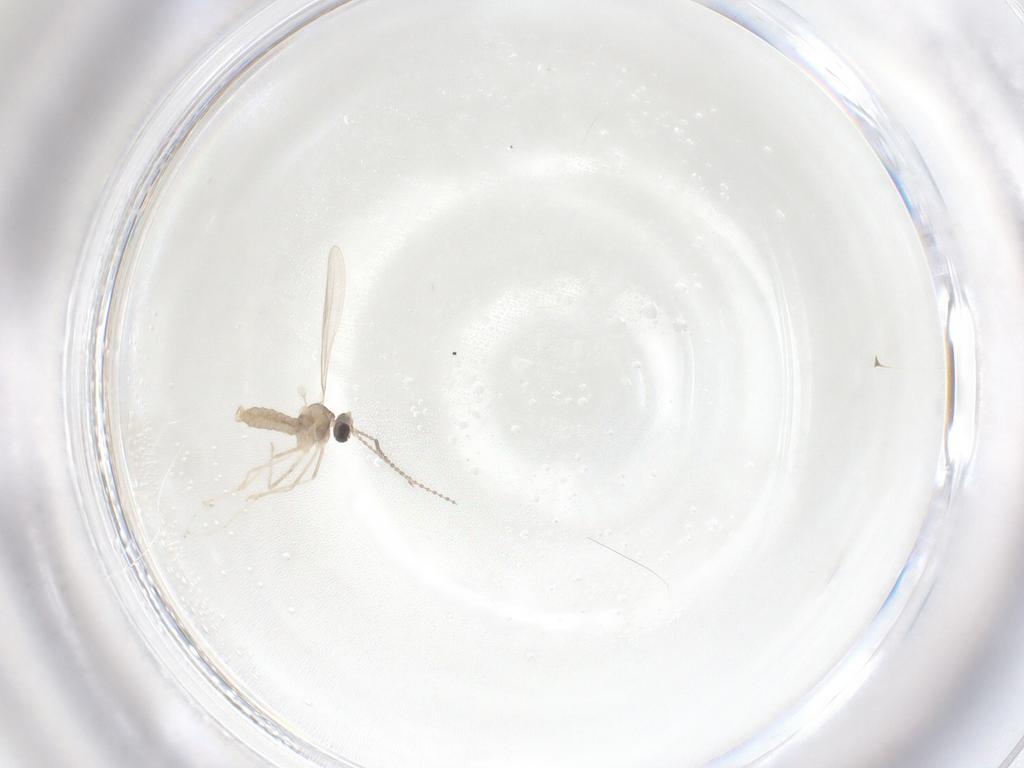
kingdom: Animalia
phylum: Arthropoda
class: Insecta
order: Diptera
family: Cecidomyiidae
